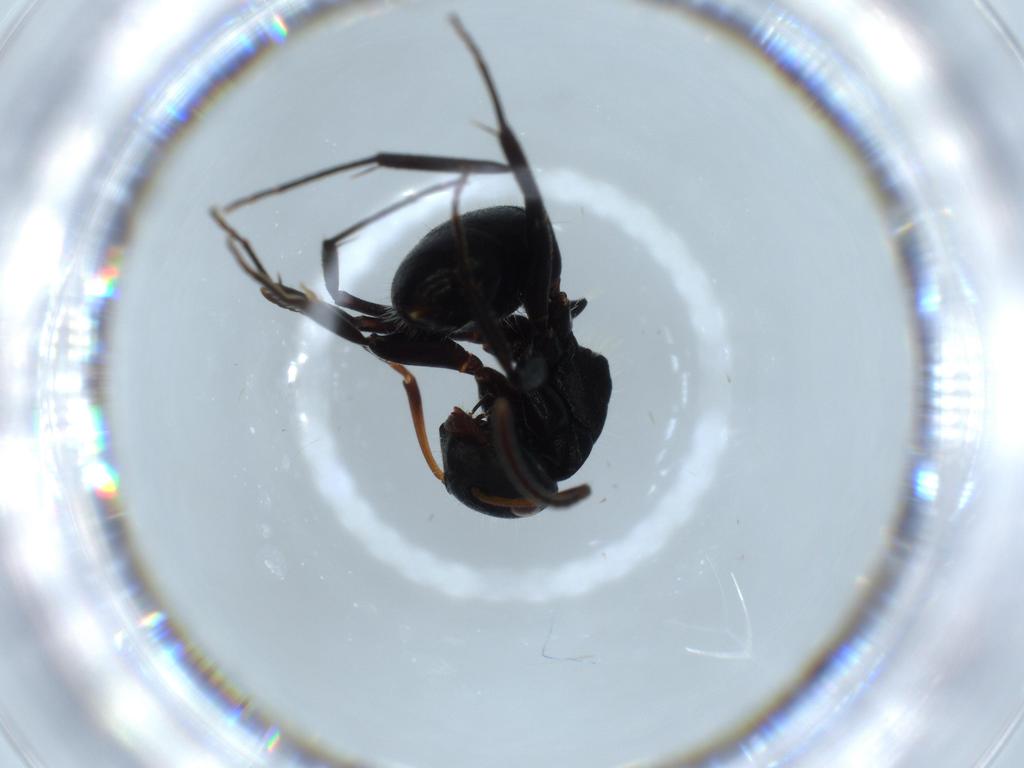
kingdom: Animalia
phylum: Arthropoda
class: Insecta
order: Hymenoptera
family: Formicidae
